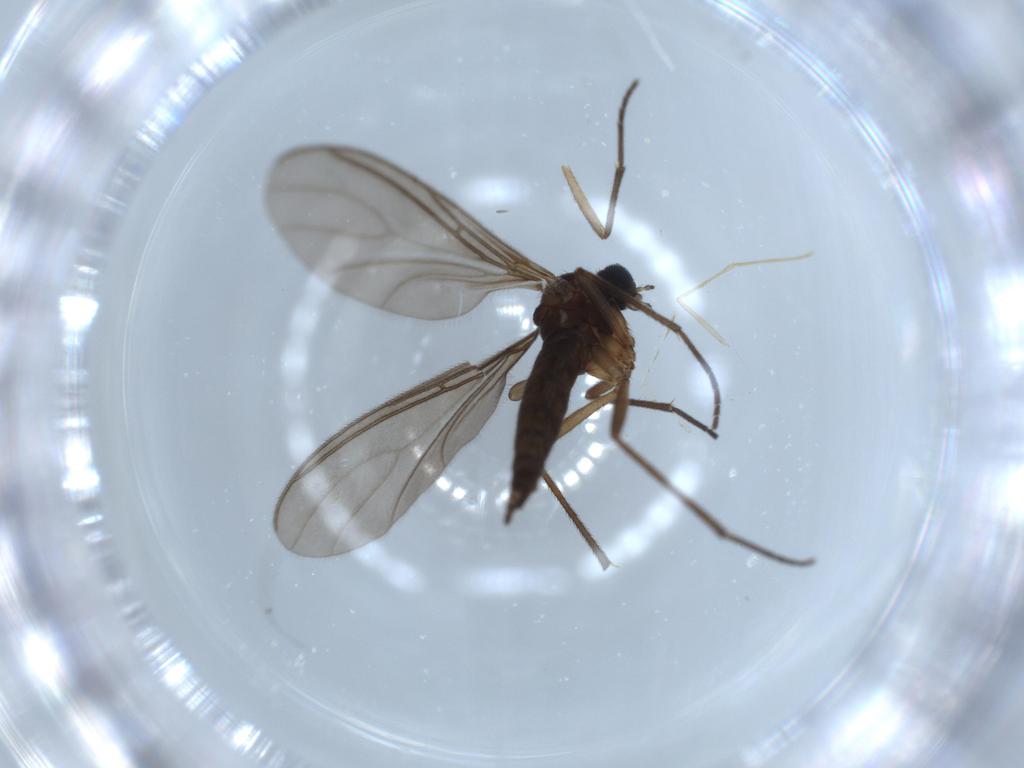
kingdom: Animalia
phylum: Arthropoda
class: Insecta
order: Diptera
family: Sciaridae
